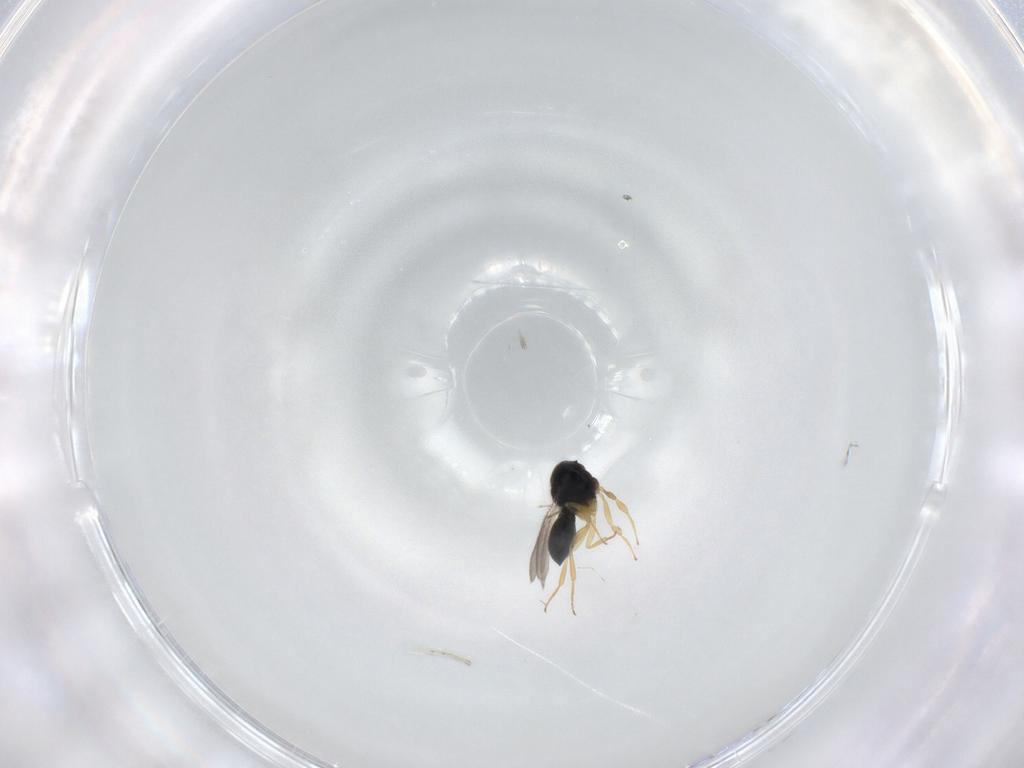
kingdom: Animalia
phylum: Arthropoda
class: Insecta
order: Hymenoptera
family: Scelionidae
